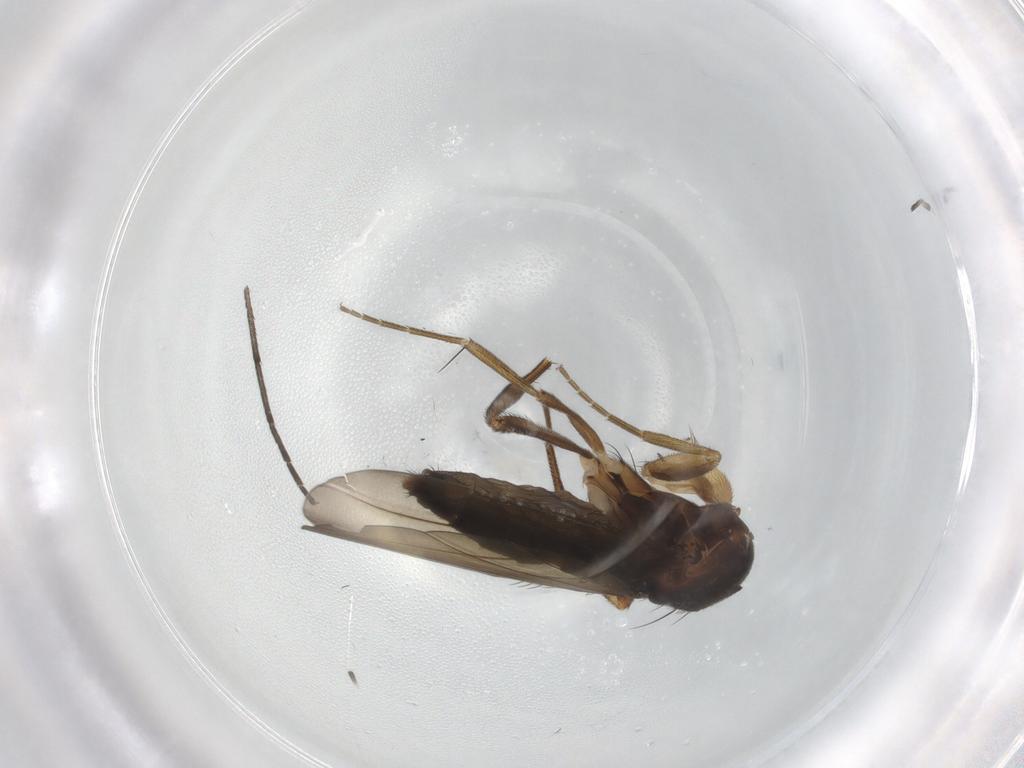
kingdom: Animalia
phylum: Arthropoda
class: Insecta
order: Diptera
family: Phoridae
